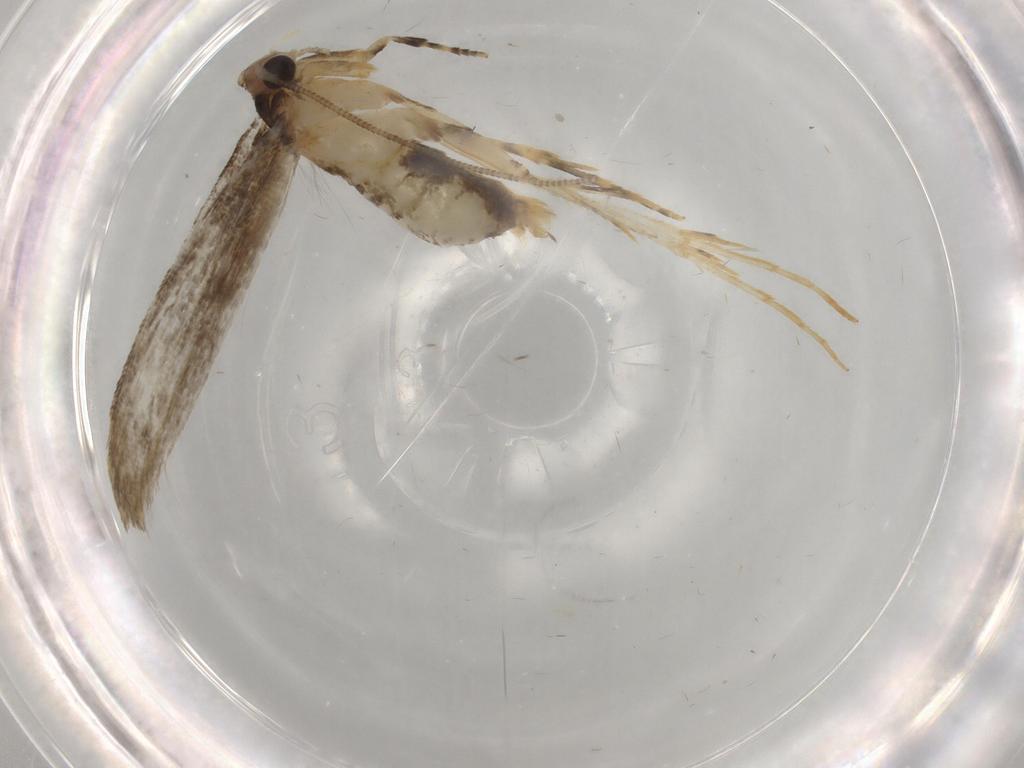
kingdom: Animalia
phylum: Arthropoda
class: Insecta
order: Lepidoptera
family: Tineidae
